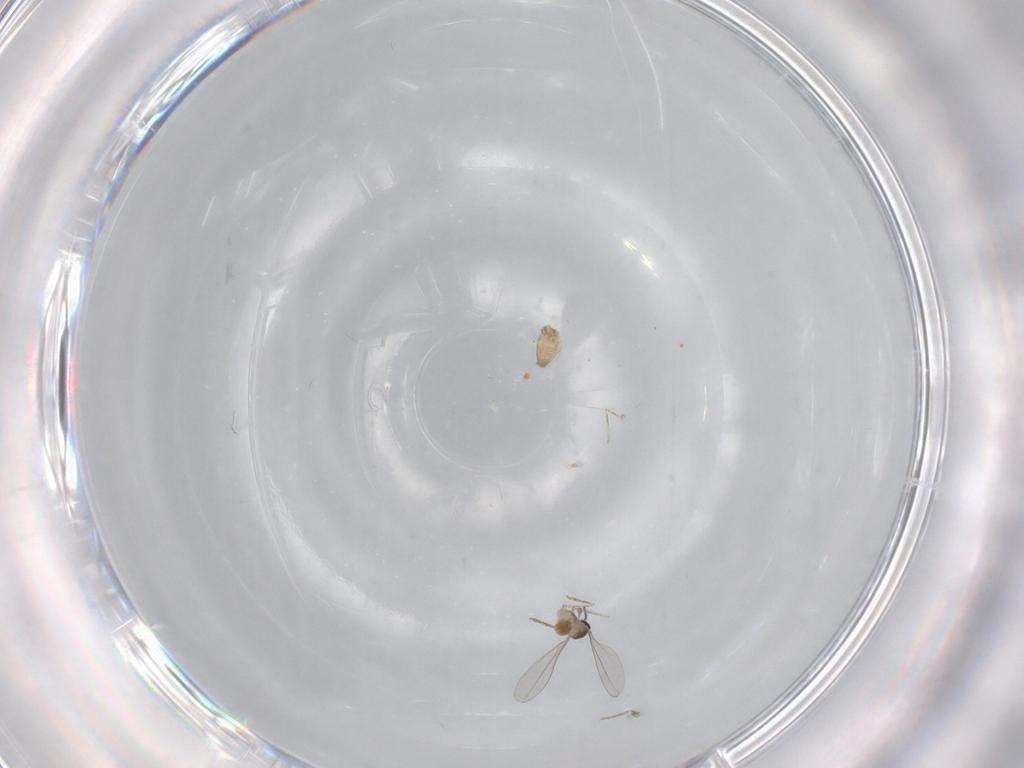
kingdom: Animalia
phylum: Arthropoda
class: Insecta
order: Diptera
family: Cecidomyiidae
